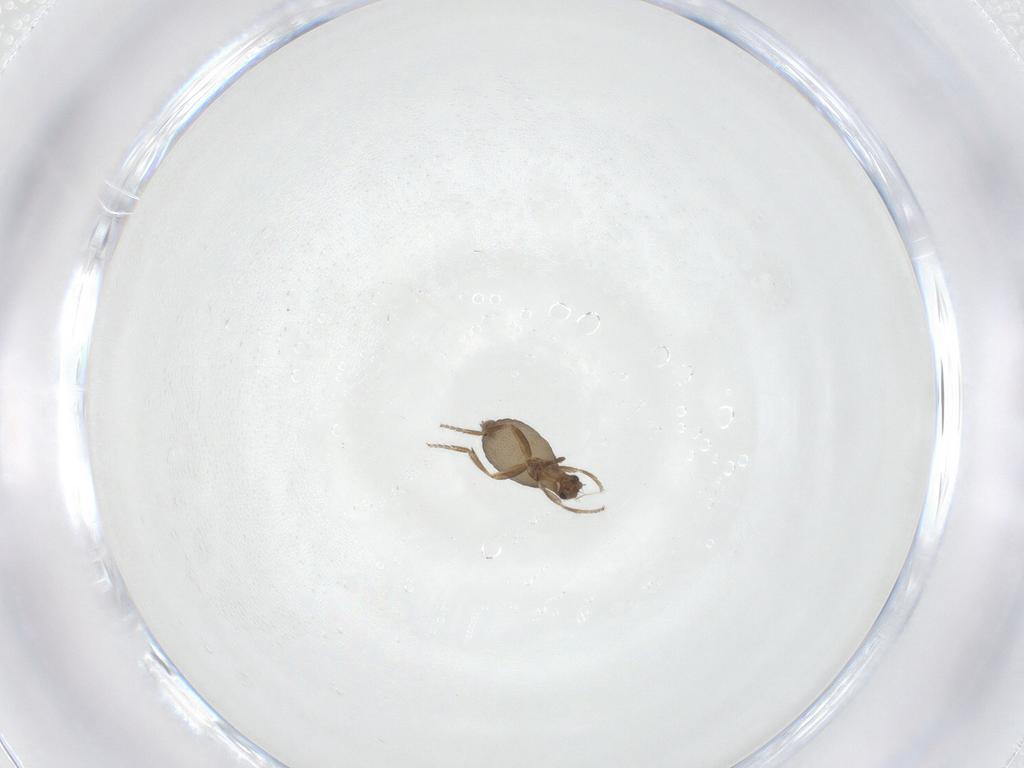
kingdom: Animalia
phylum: Arthropoda
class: Insecta
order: Diptera
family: Phoridae
